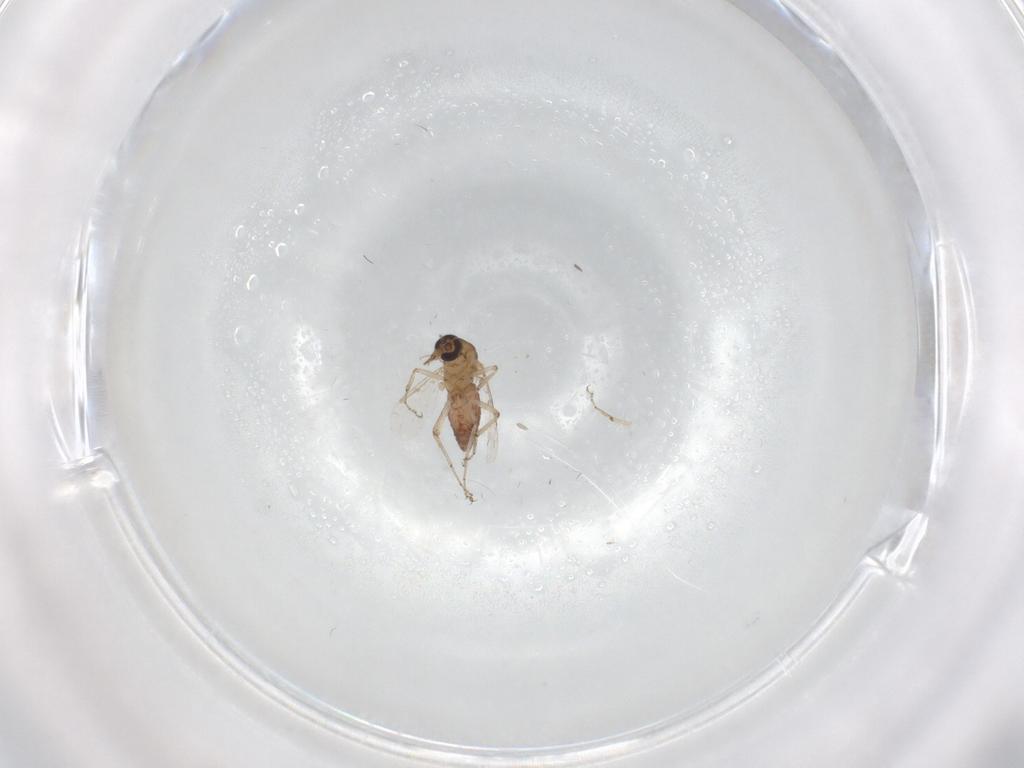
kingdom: Animalia
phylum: Arthropoda
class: Insecta
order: Diptera
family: Ceratopogonidae
